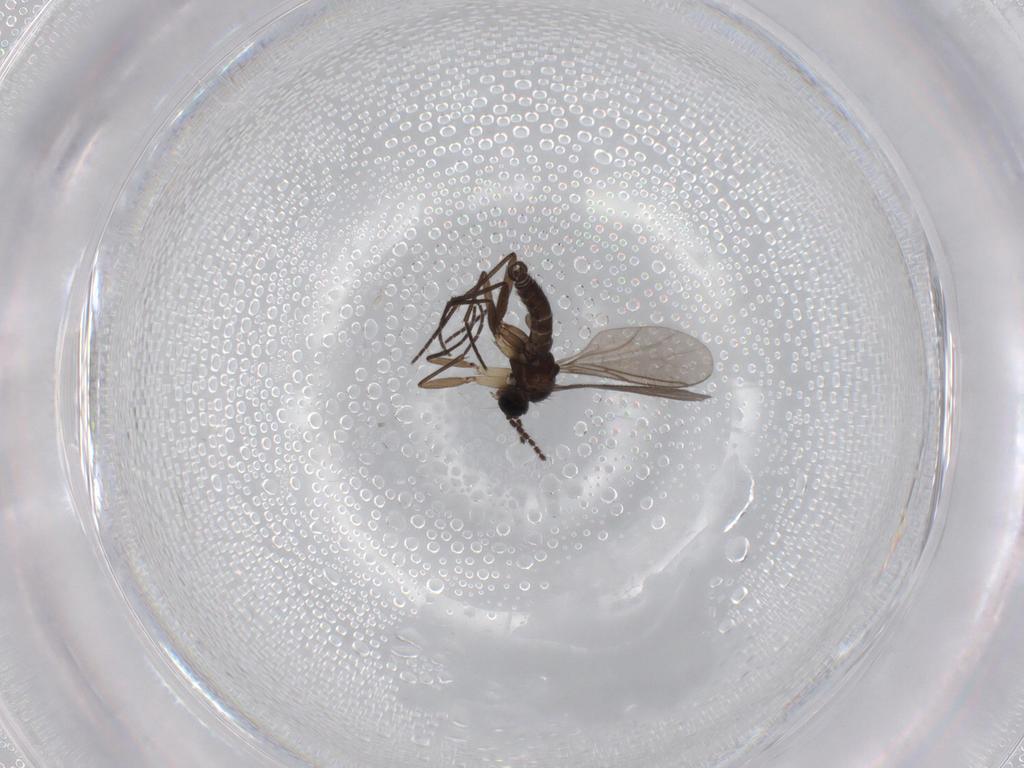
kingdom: Animalia
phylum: Arthropoda
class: Insecta
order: Diptera
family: Sciaridae
